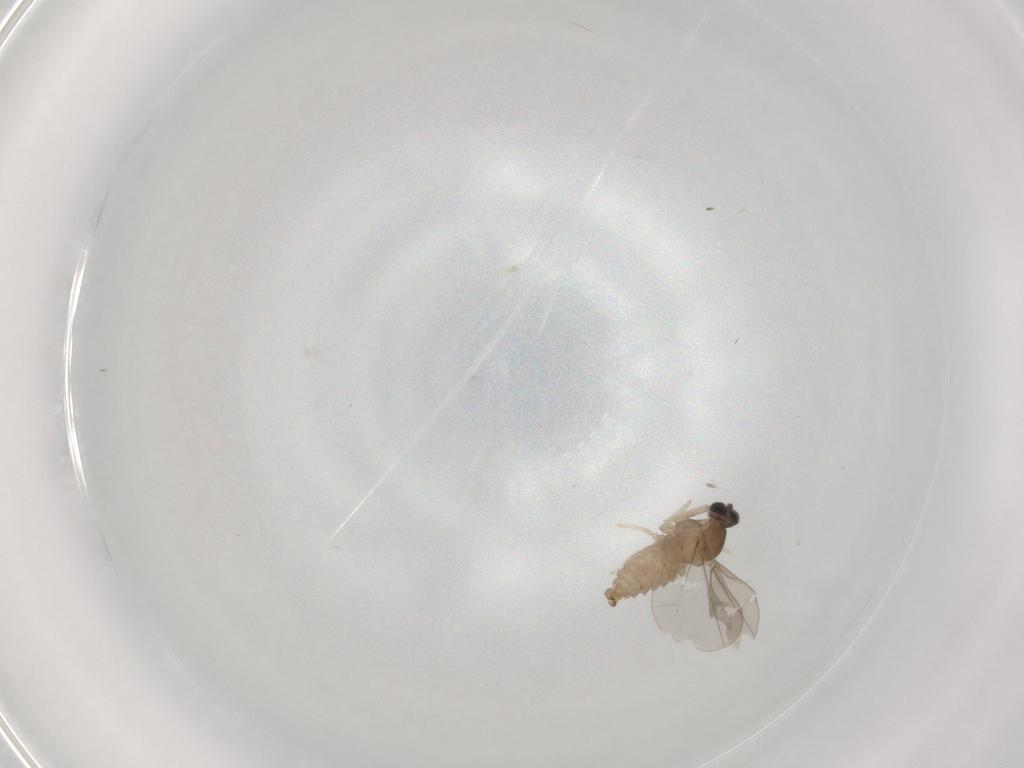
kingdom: Animalia
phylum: Arthropoda
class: Insecta
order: Diptera
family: Cecidomyiidae
